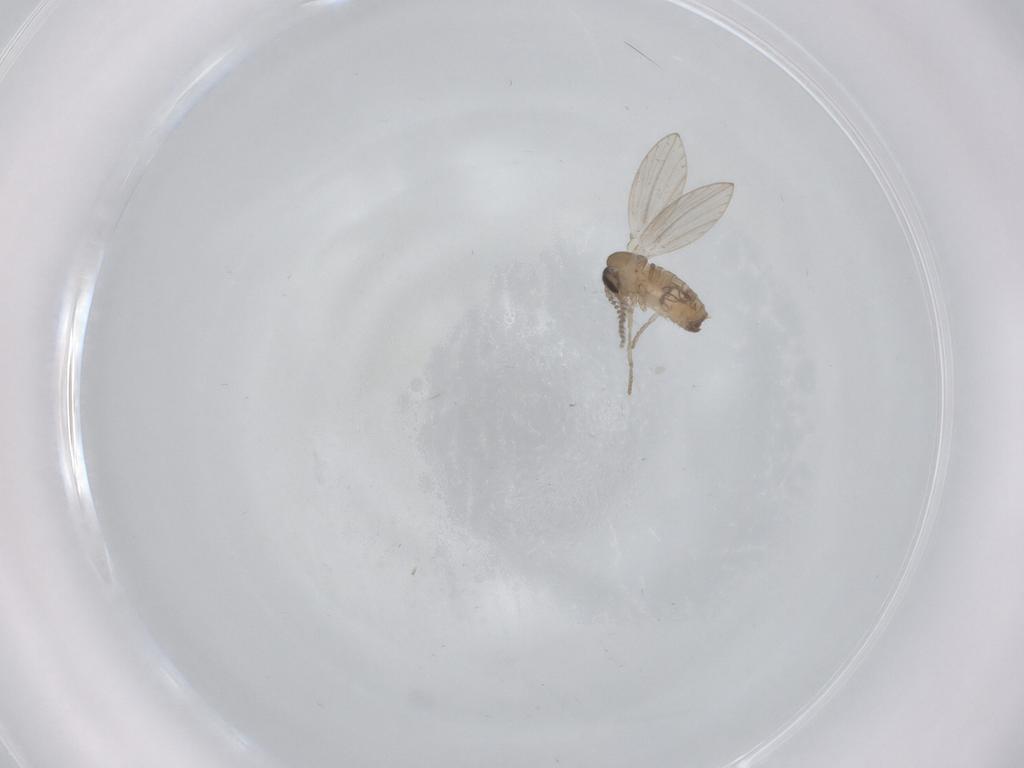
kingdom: Animalia
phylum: Arthropoda
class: Insecta
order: Diptera
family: Psychodidae
